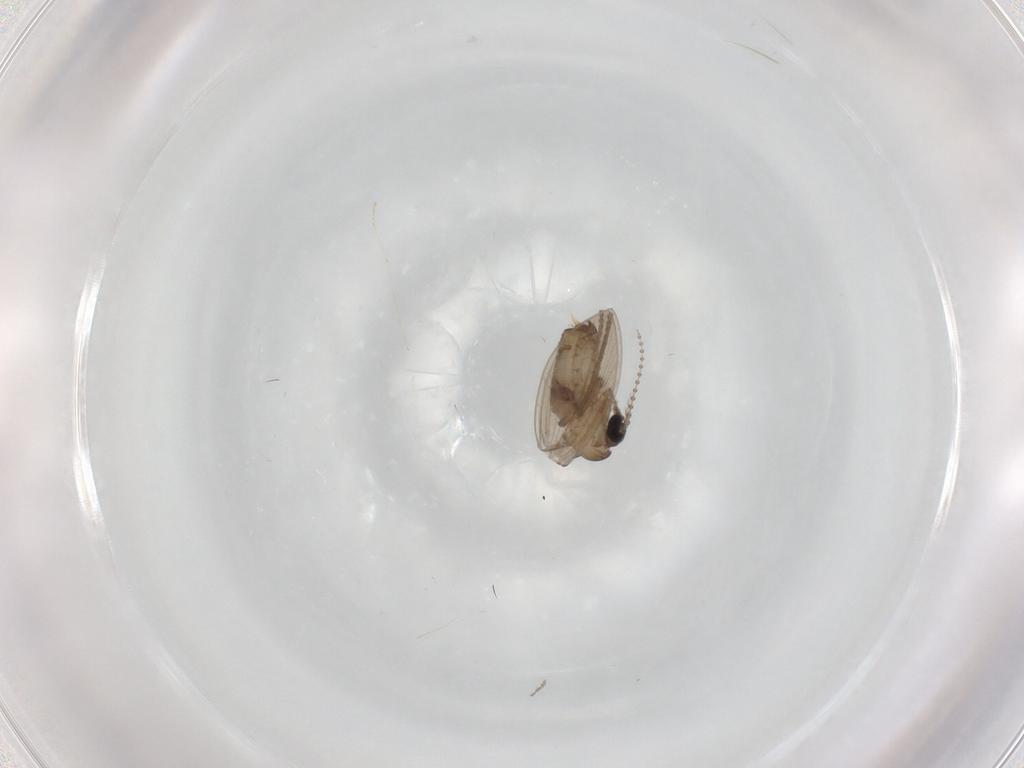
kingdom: Animalia
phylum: Arthropoda
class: Insecta
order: Diptera
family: Psychodidae
